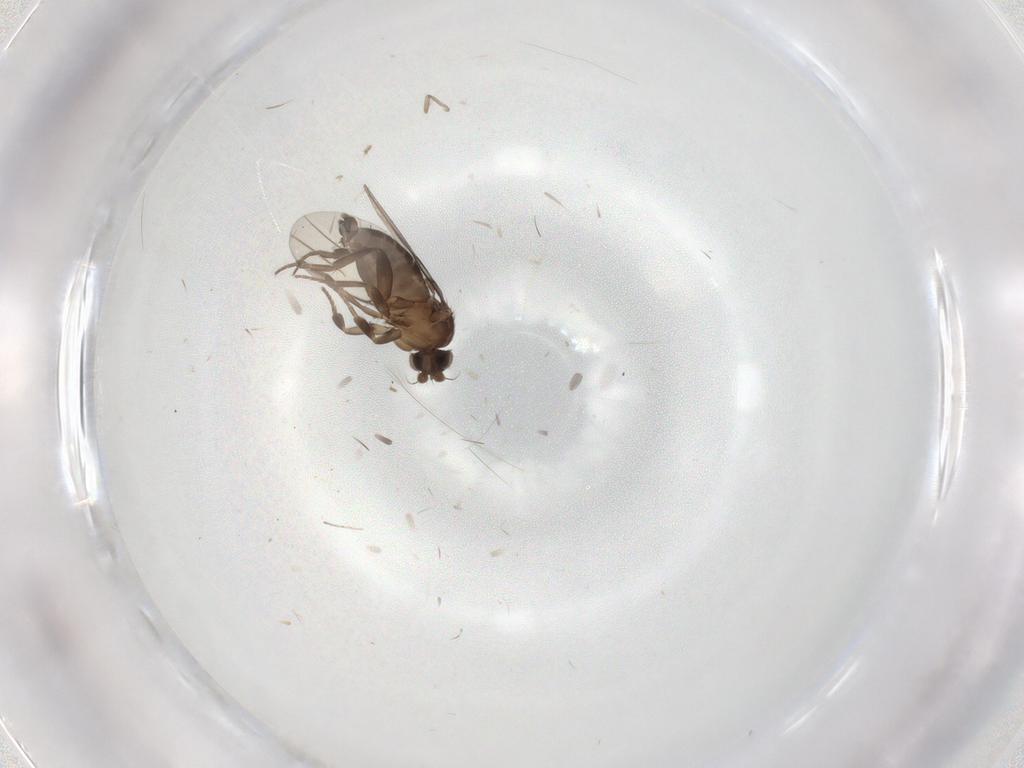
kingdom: Animalia
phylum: Arthropoda
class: Insecta
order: Diptera
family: Phoridae
